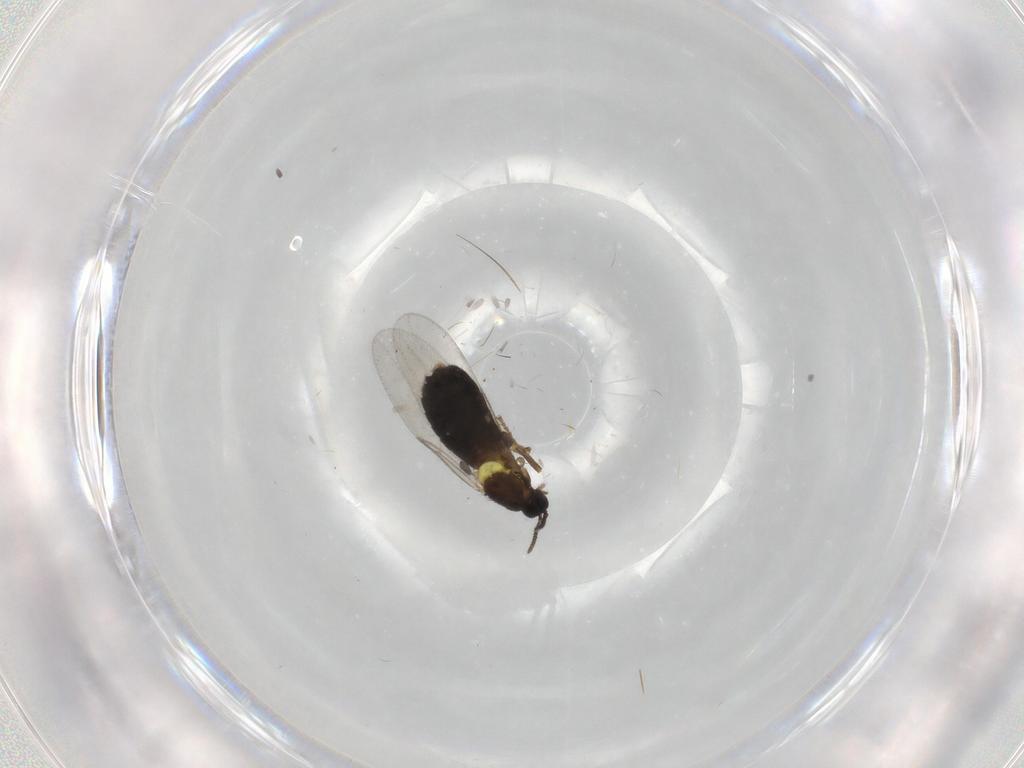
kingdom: Animalia
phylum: Arthropoda
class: Insecta
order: Diptera
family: Scatopsidae
